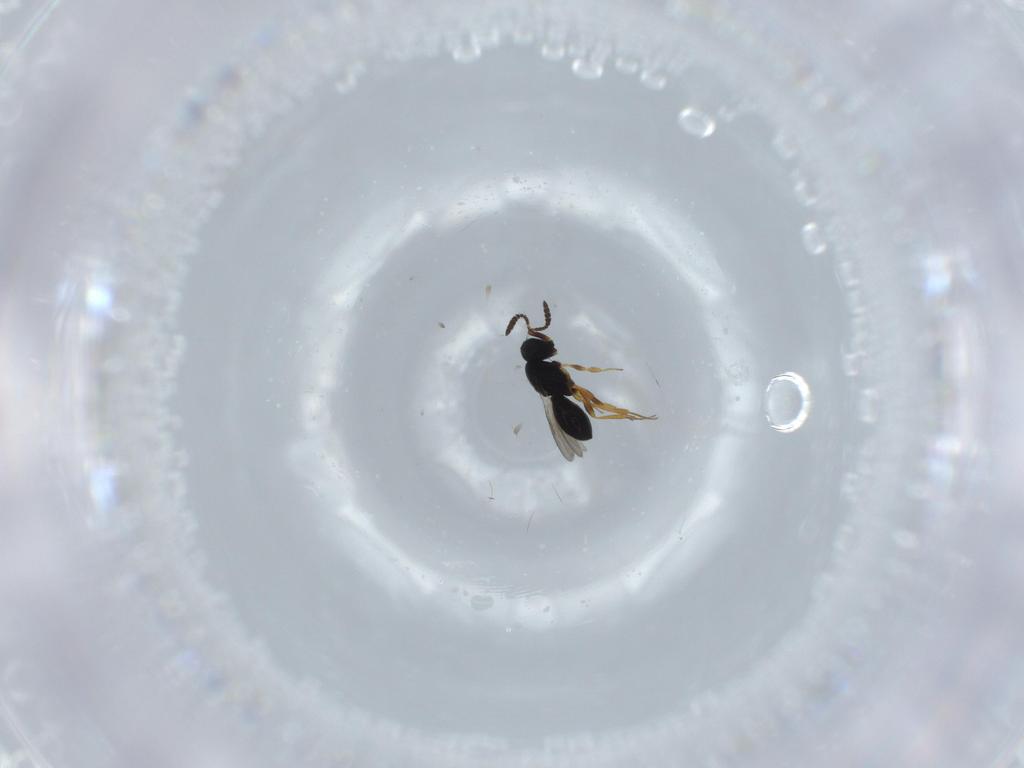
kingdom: Animalia
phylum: Arthropoda
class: Insecta
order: Hymenoptera
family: Scelionidae
